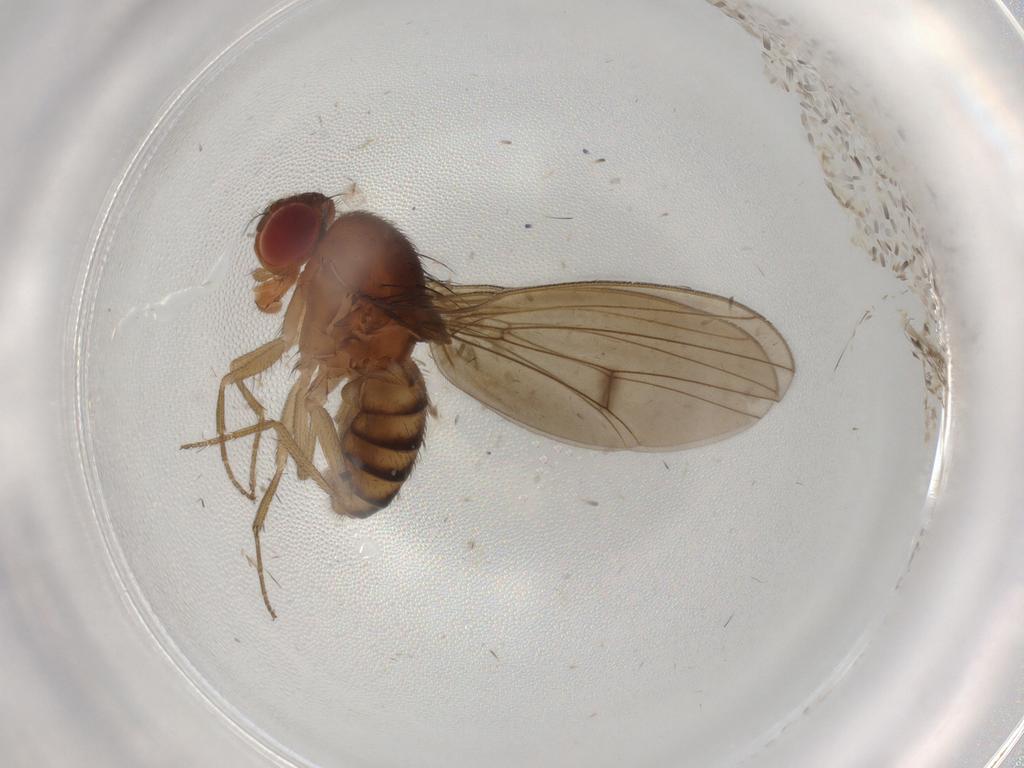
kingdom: Animalia
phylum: Arthropoda
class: Insecta
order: Diptera
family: Drosophilidae
